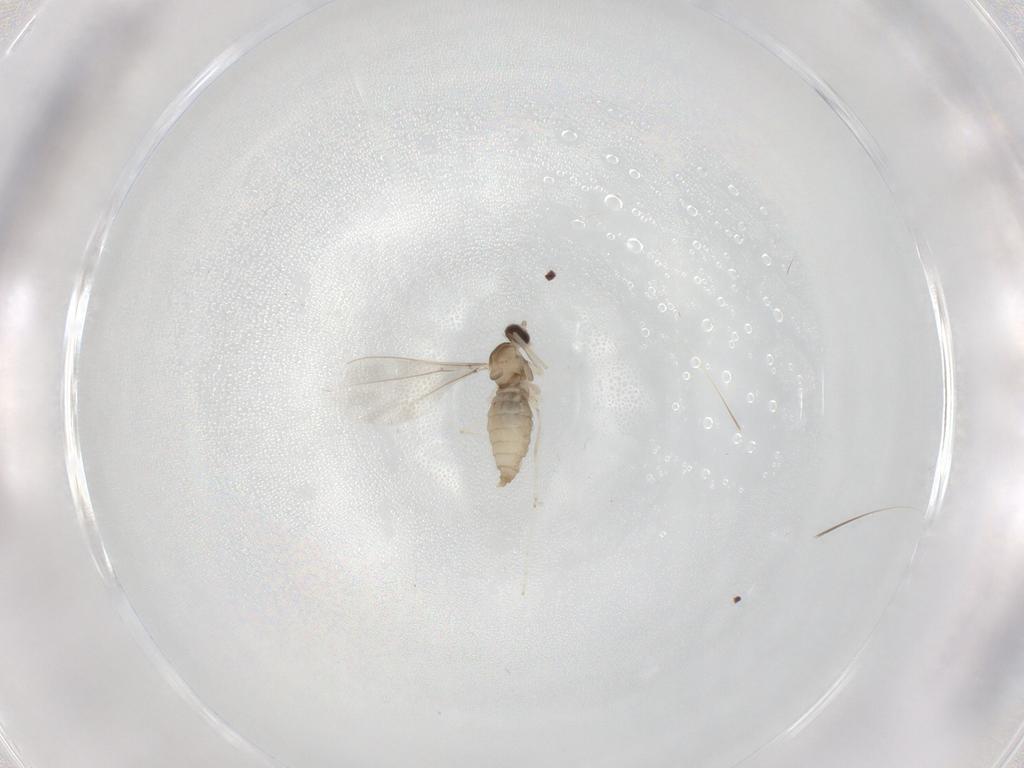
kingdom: Animalia
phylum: Arthropoda
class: Insecta
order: Diptera
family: Cecidomyiidae
